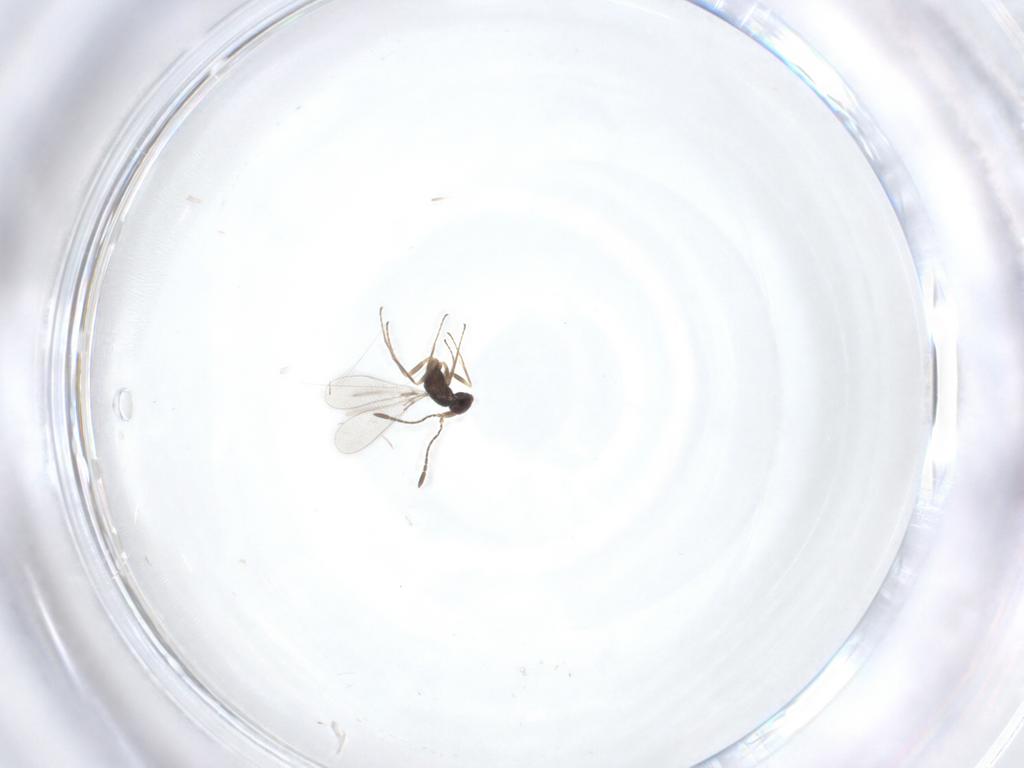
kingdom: Animalia
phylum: Arthropoda
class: Insecta
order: Hymenoptera
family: Mymaridae
